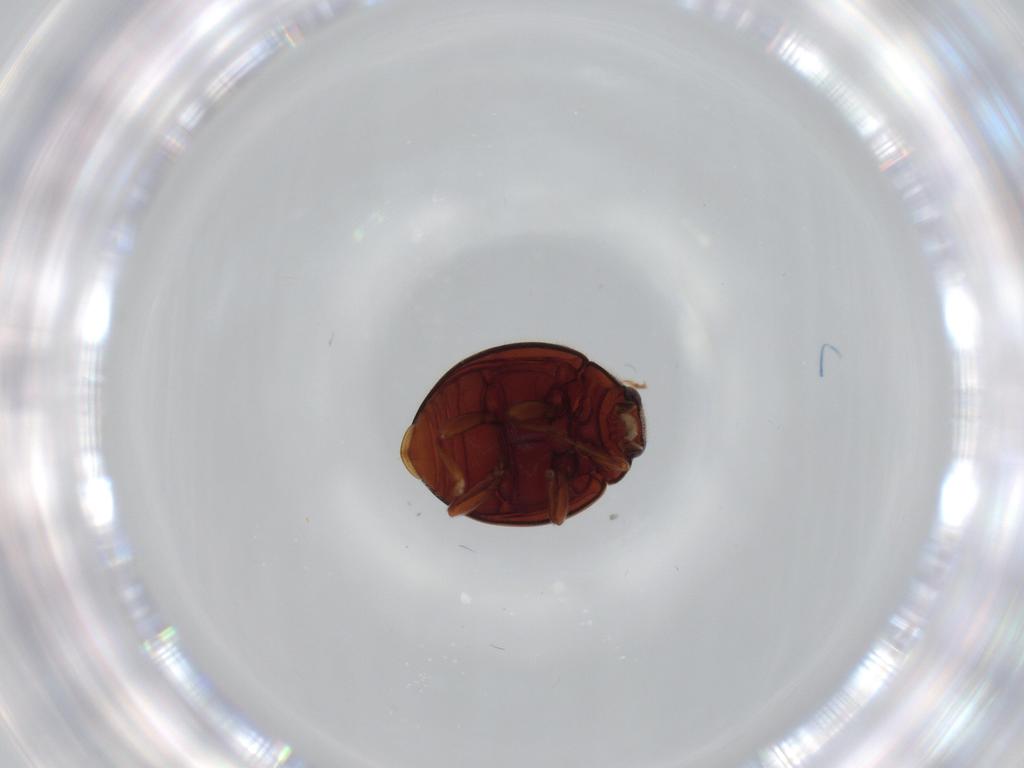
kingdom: Animalia
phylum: Arthropoda
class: Insecta
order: Coleoptera
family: Coccinellidae
